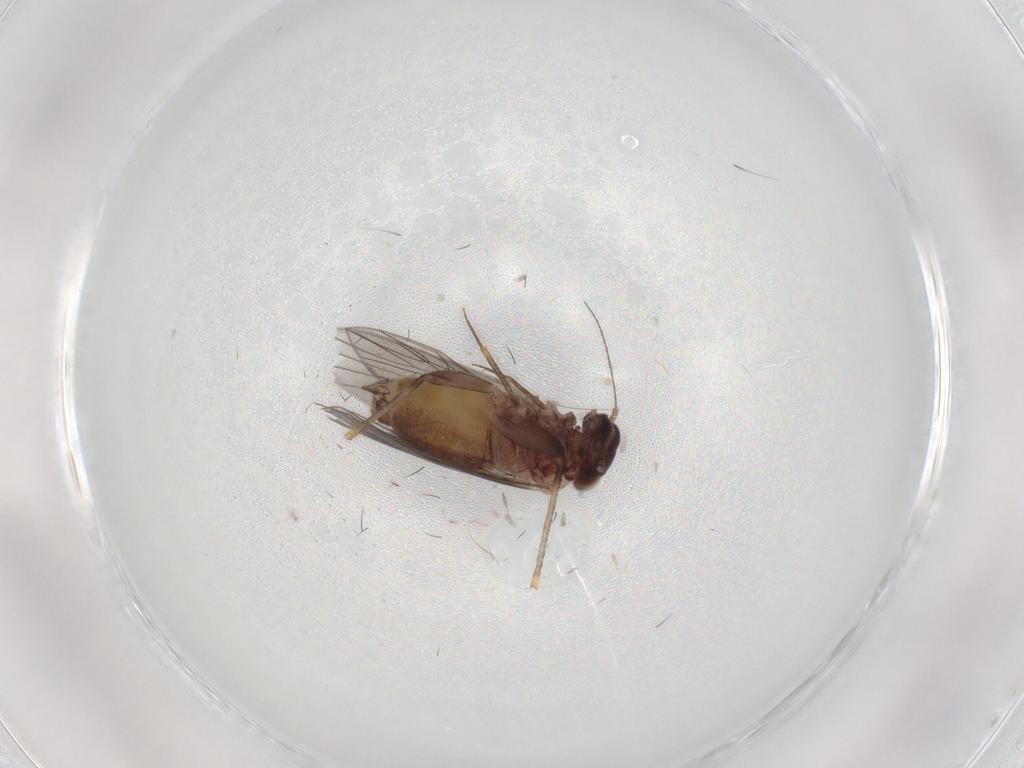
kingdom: Animalia
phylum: Arthropoda
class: Insecta
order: Psocodea
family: Lepidopsocidae
